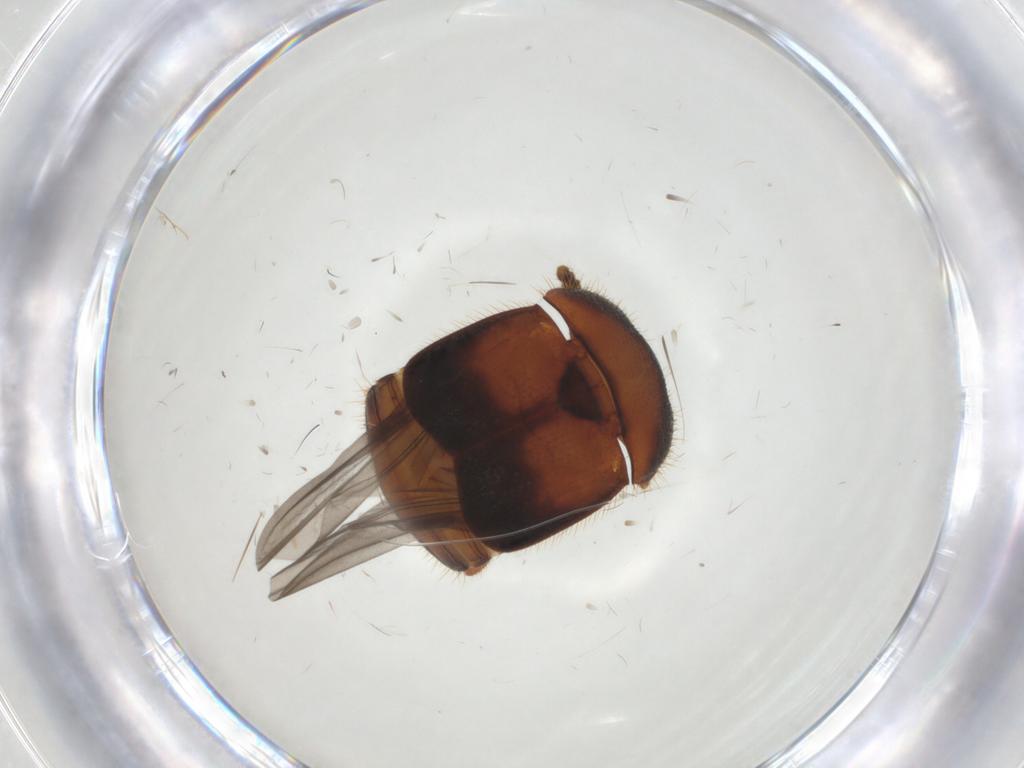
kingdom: Animalia
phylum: Arthropoda
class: Insecta
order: Coleoptera
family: Nitidulidae
